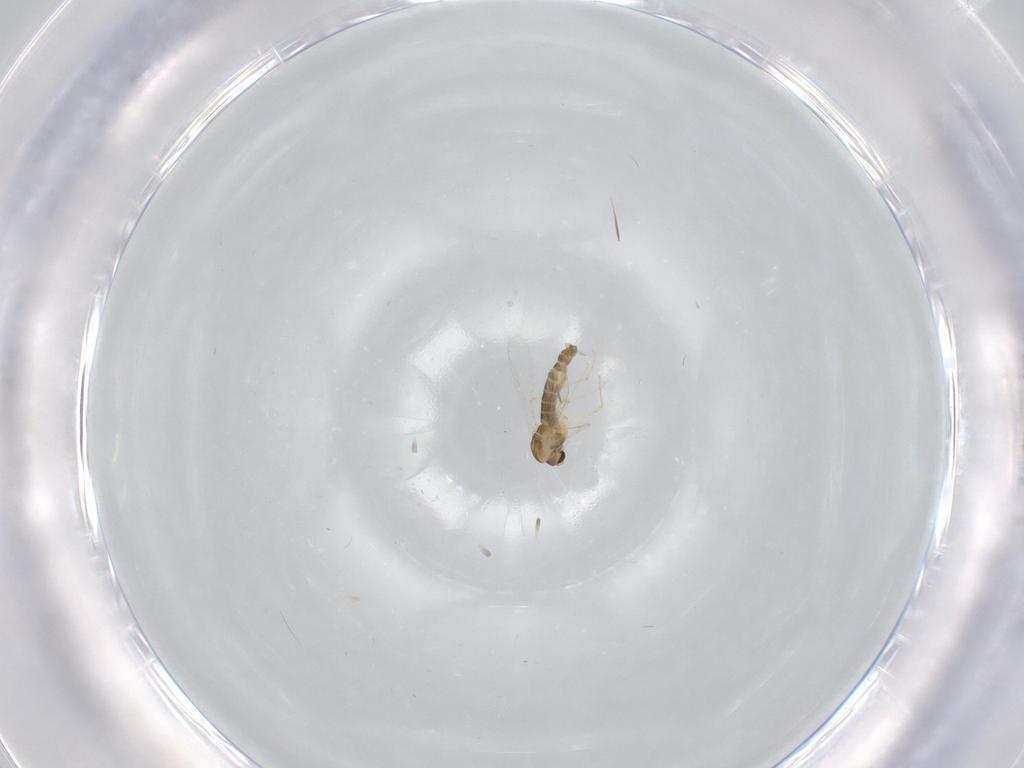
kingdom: Animalia
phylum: Arthropoda
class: Insecta
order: Diptera
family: Chironomidae
